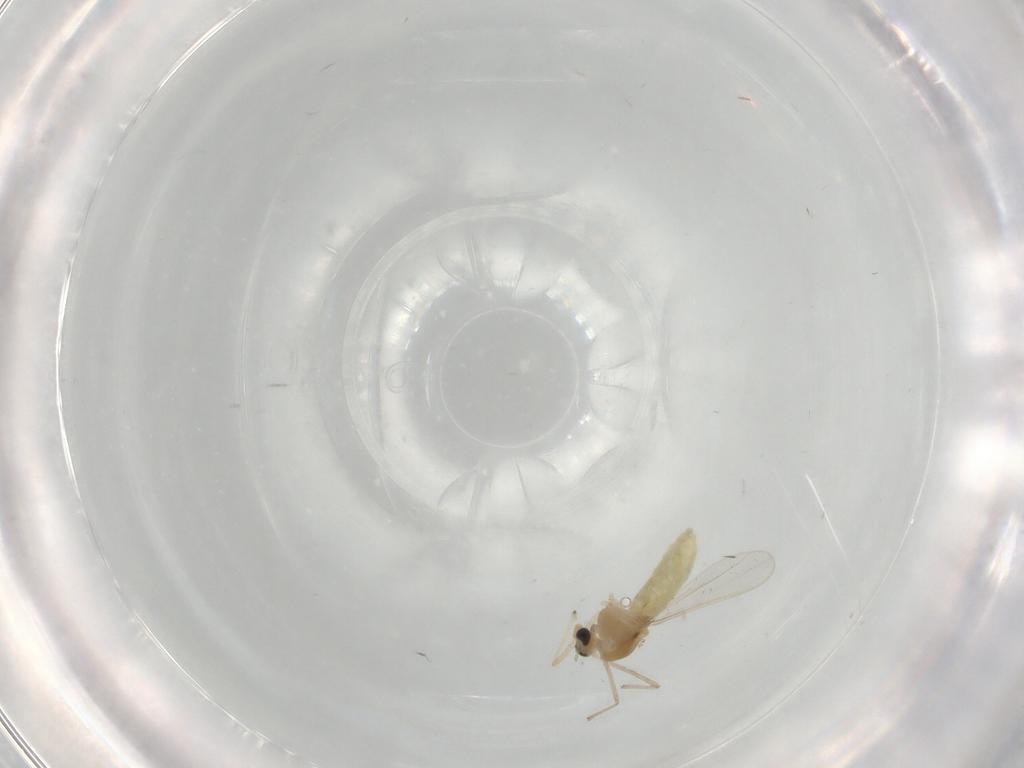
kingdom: Animalia
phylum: Arthropoda
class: Insecta
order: Diptera
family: Chironomidae
